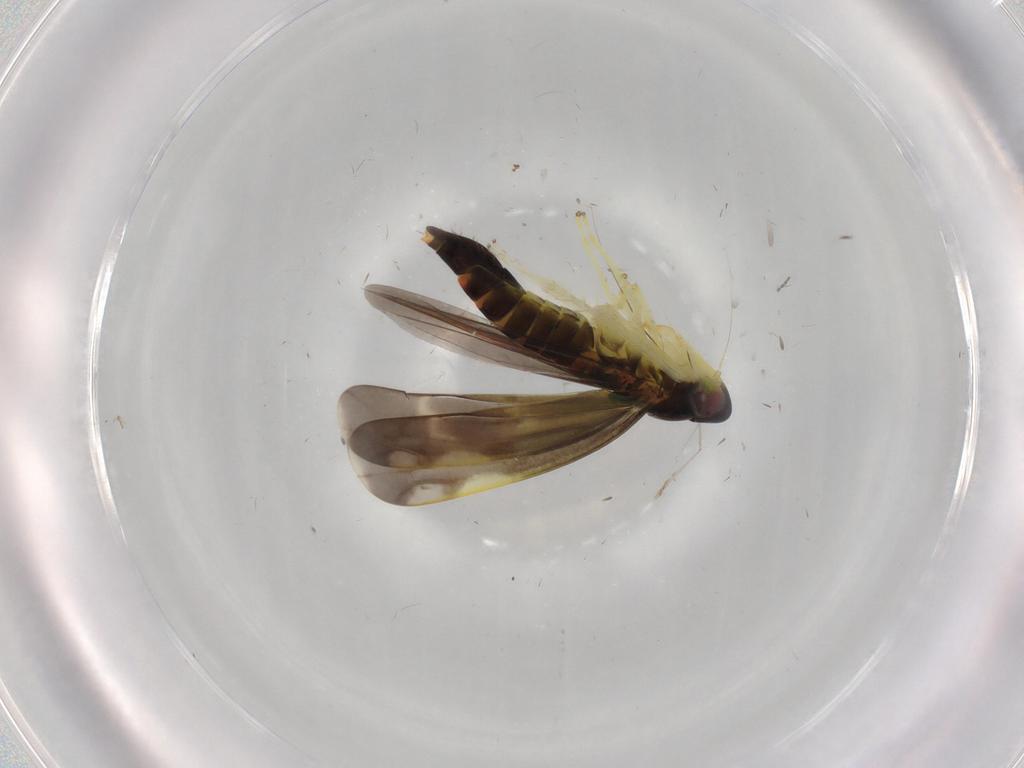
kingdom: Animalia
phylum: Arthropoda
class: Insecta
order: Hemiptera
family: Cicadellidae
